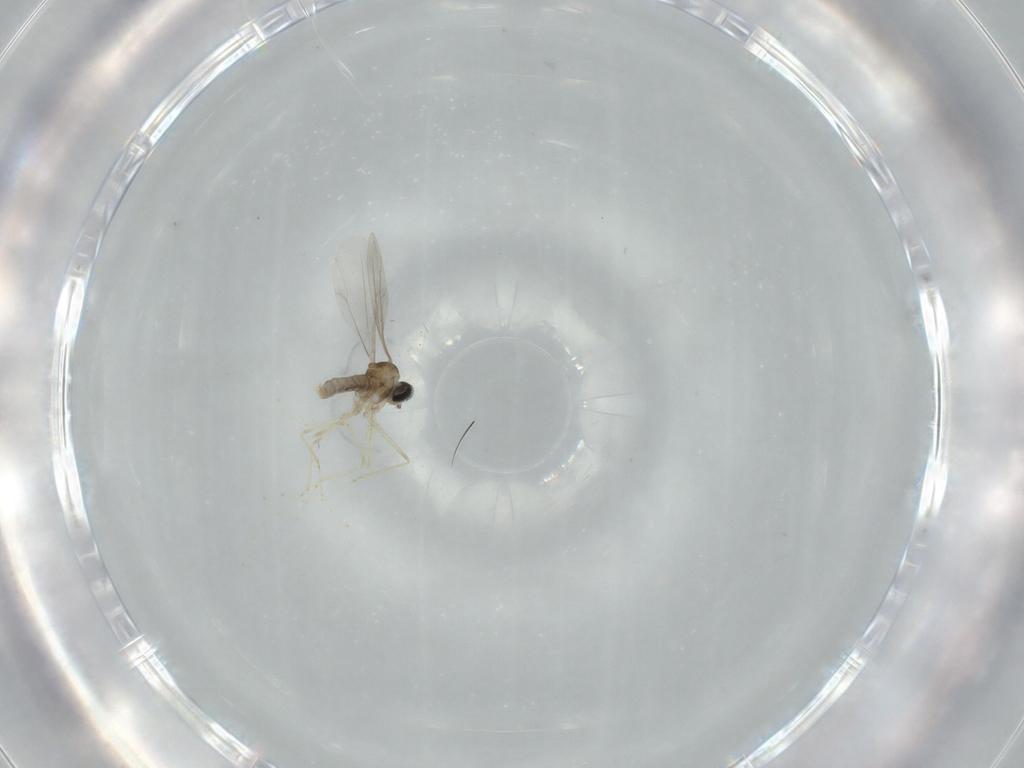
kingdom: Animalia
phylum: Arthropoda
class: Insecta
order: Diptera
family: Cecidomyiidae
